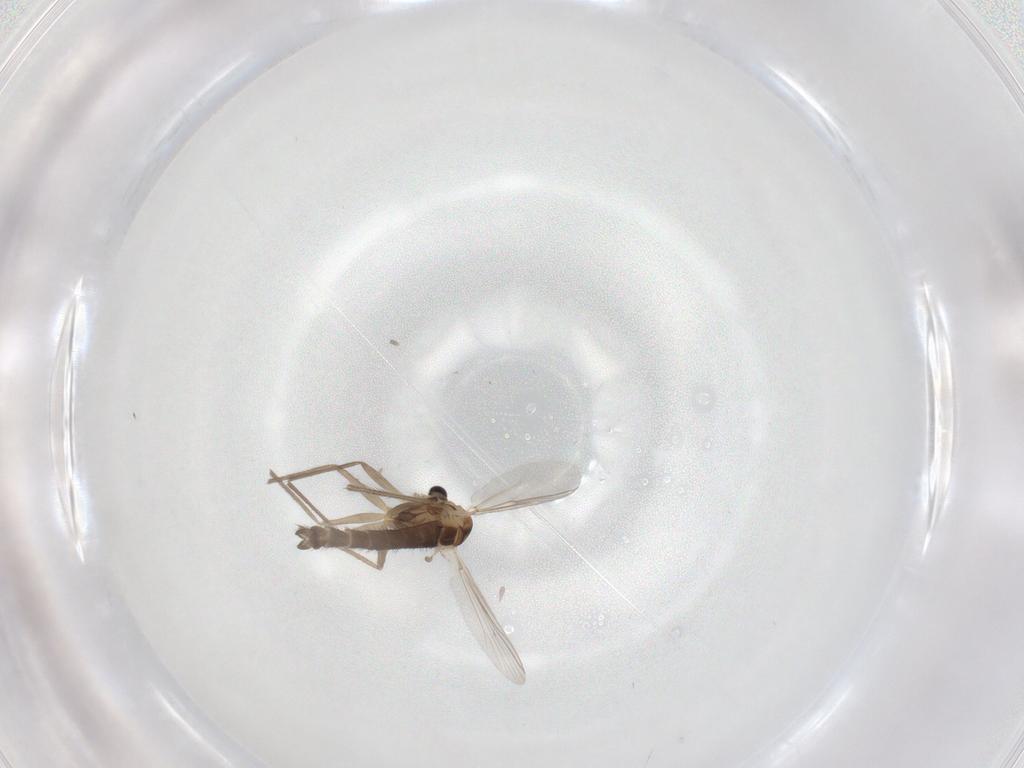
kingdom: Animalia
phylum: Arthropoda
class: Insecta
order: Diptera
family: Chironomidae
